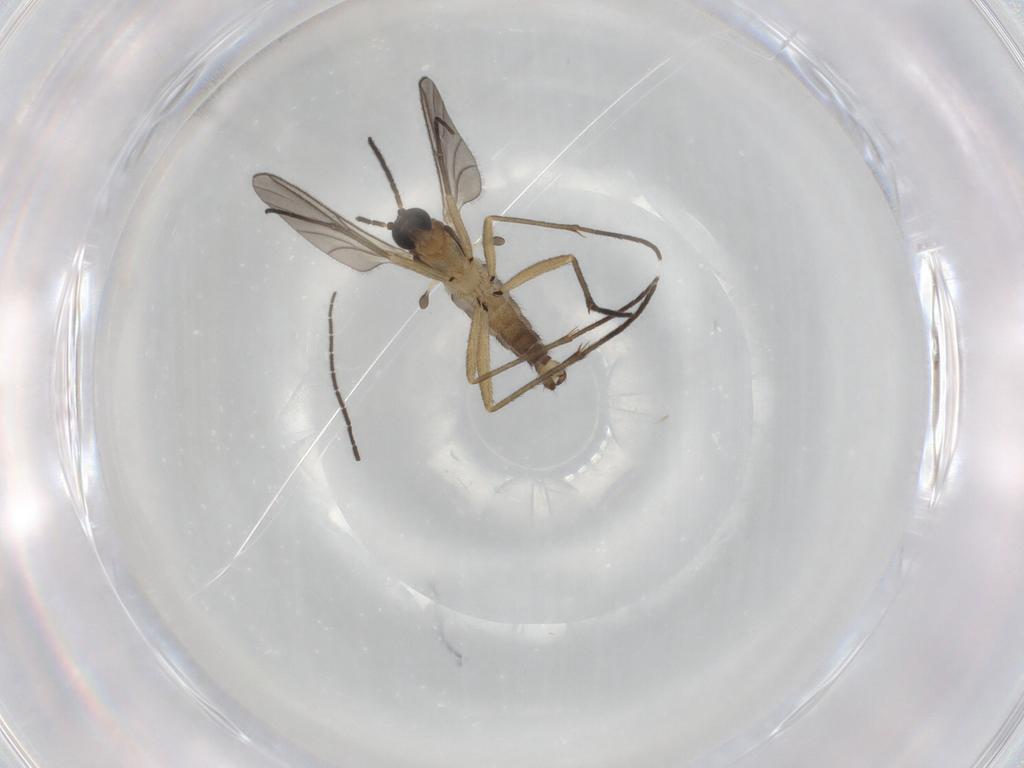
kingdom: Animalia
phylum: Arthropoda
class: Insecta
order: Diptera
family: Sciaridae
